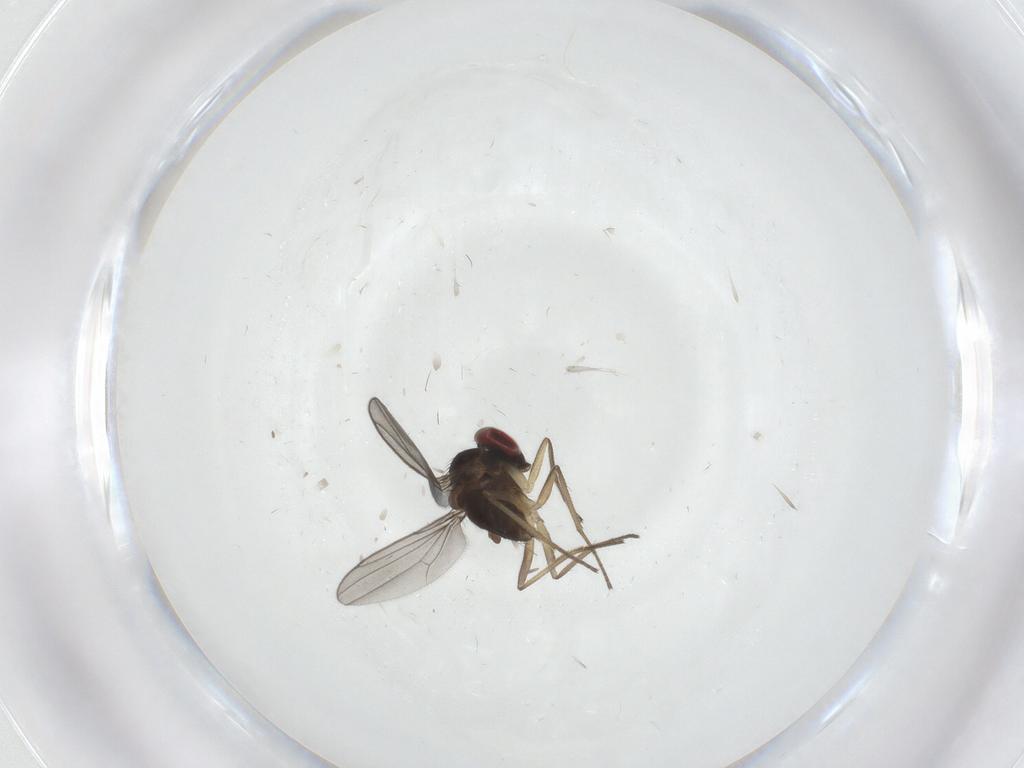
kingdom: Animalia
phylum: Arthropoda
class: Insecta
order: Diptera
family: Dolichopodidae
